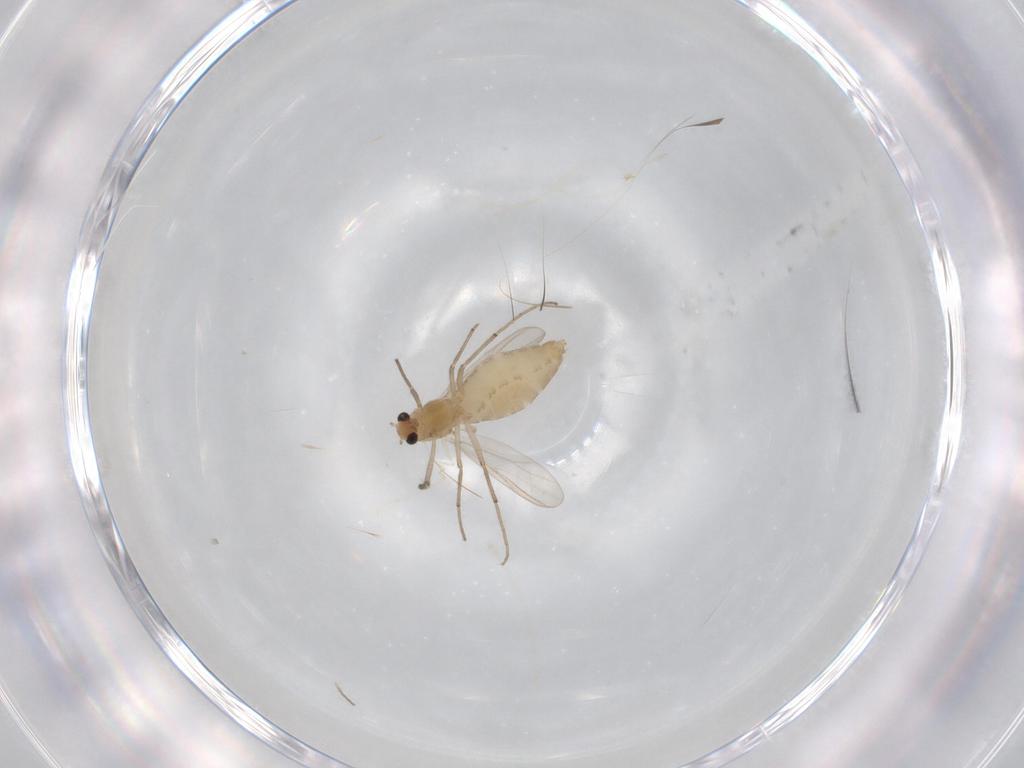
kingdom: Animalia
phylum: Arthropoda
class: Insecta
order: Diptera
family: Chironomidae
